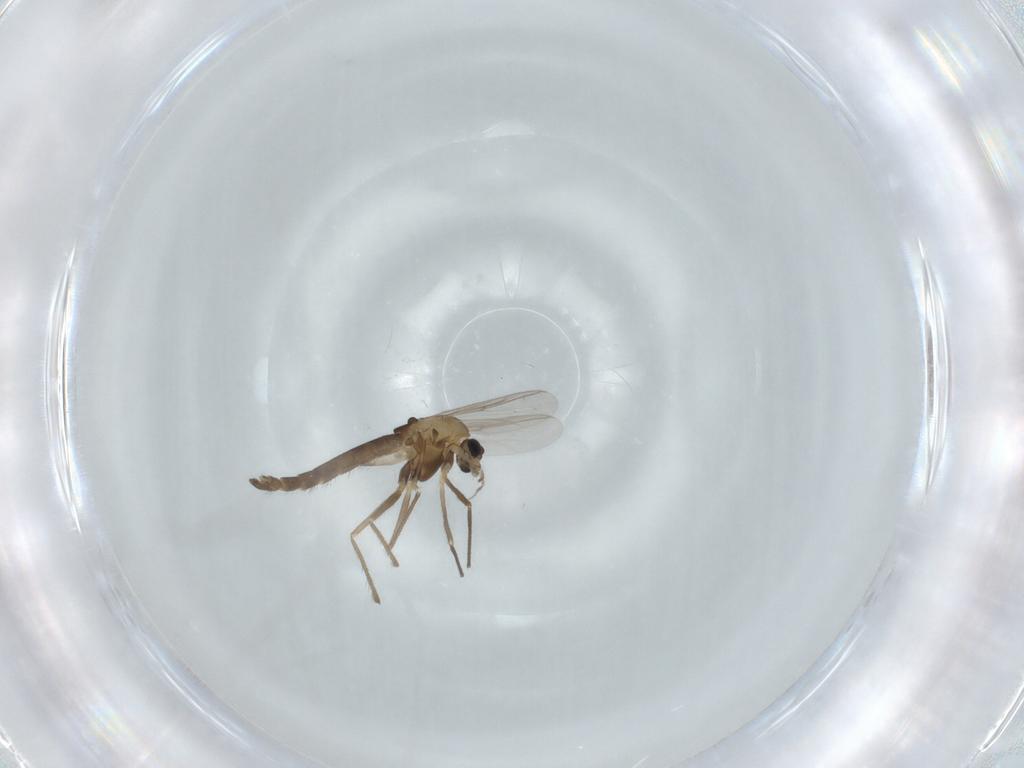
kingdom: Animalia
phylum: Arthropoda
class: Insecta
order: Diptera
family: Chironomidae
